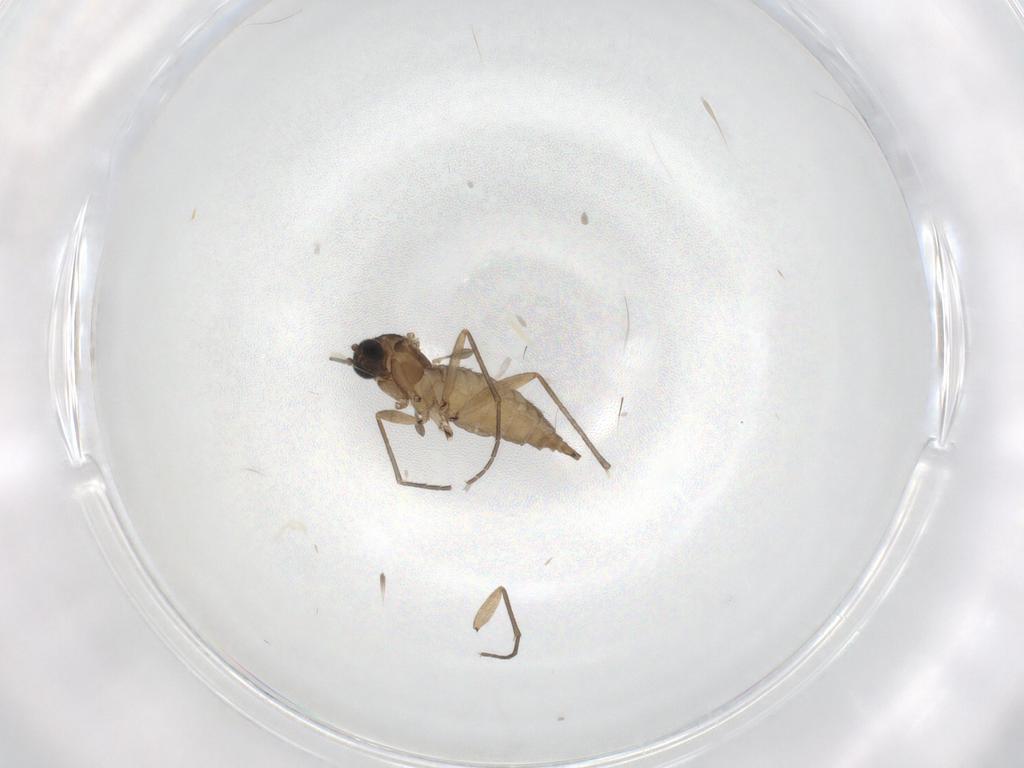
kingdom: Animalia
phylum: Arthropoda
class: Insecta
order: Diptera
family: Sciaridae
